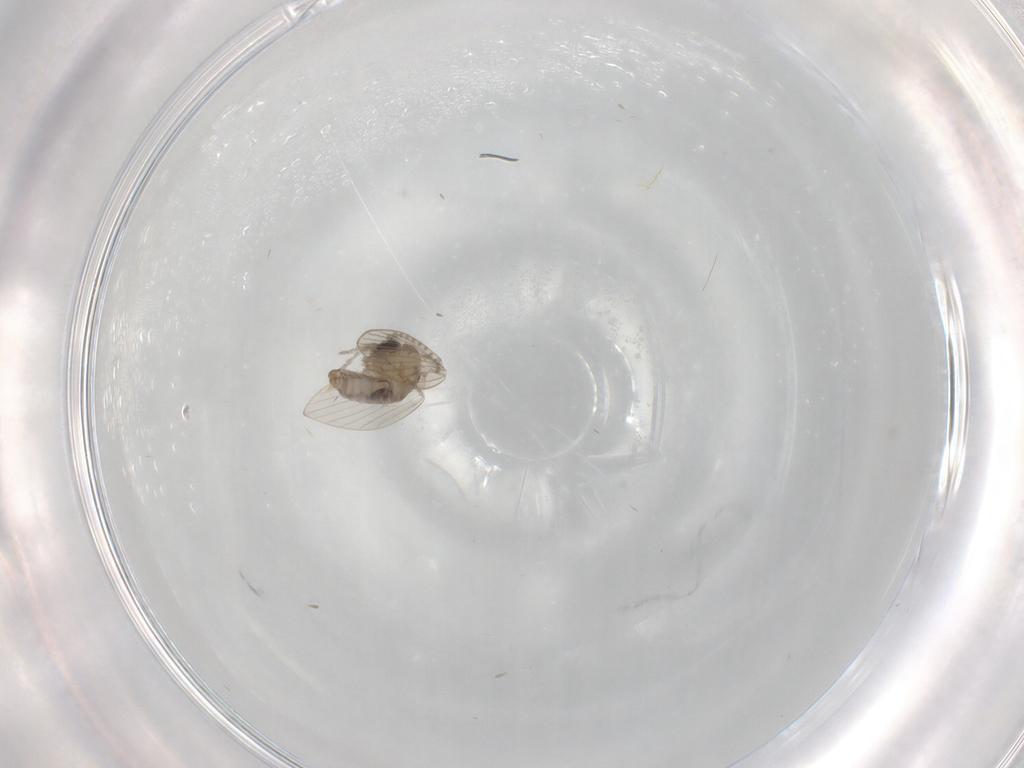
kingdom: Animalia
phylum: Arthropoda
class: Insecta
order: Diptera
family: Psychodidae
